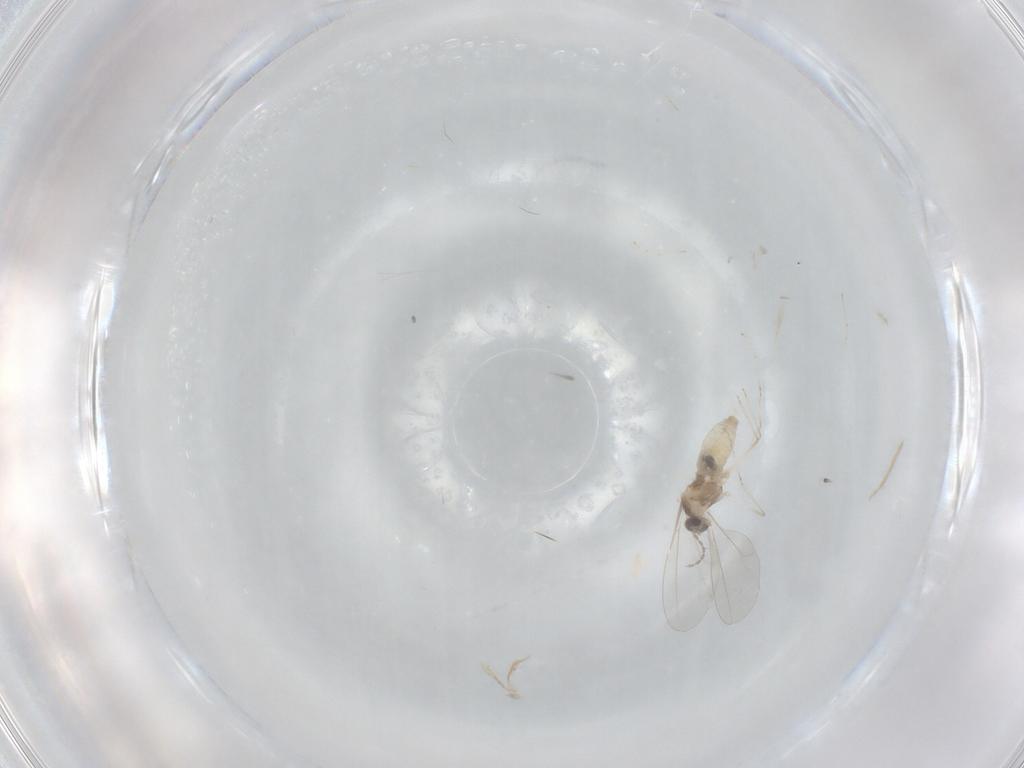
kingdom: Animalia
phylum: Arthropoda
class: Insecta
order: Diptera
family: Cecidomyiidae
